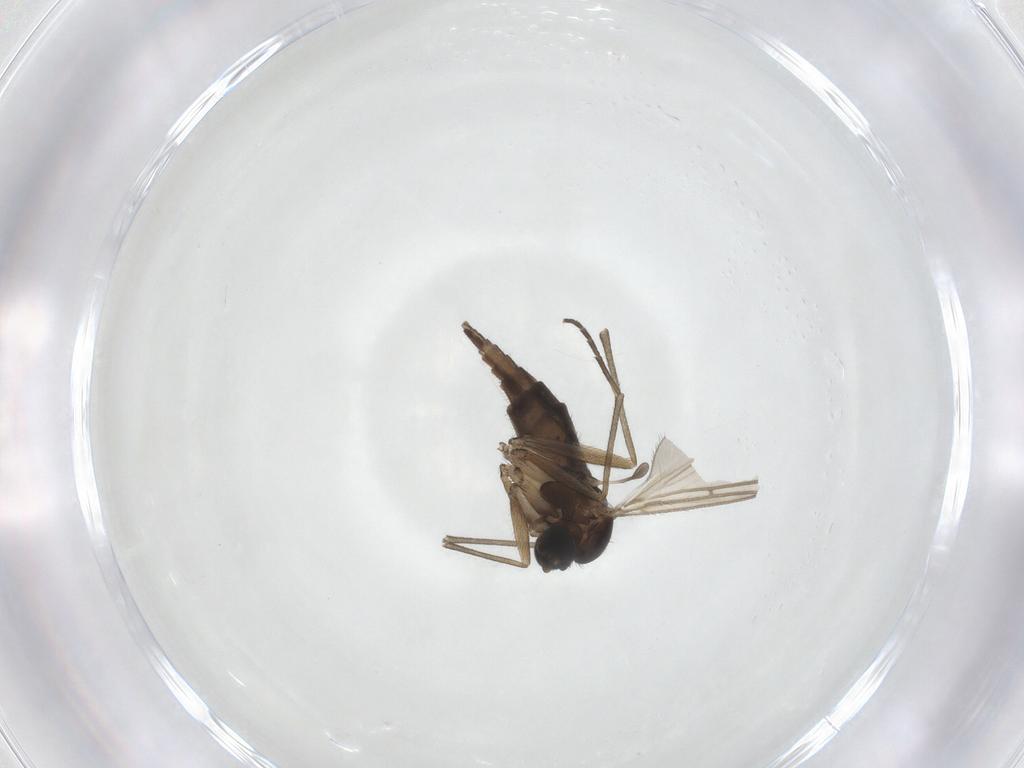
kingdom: Animalia
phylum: Arthropoda
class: Insecta
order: Diptera
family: Sciaridae
